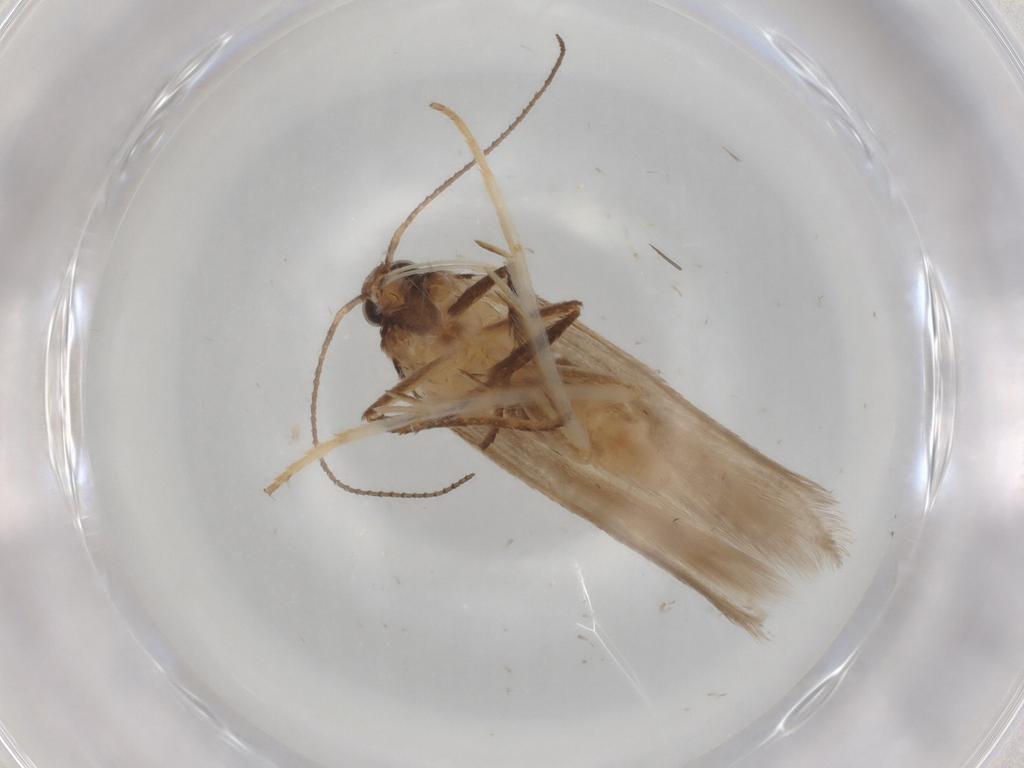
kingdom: Animalia
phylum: Arthropoda
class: Insecta
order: Lepidoptera
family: Gelechiidae
